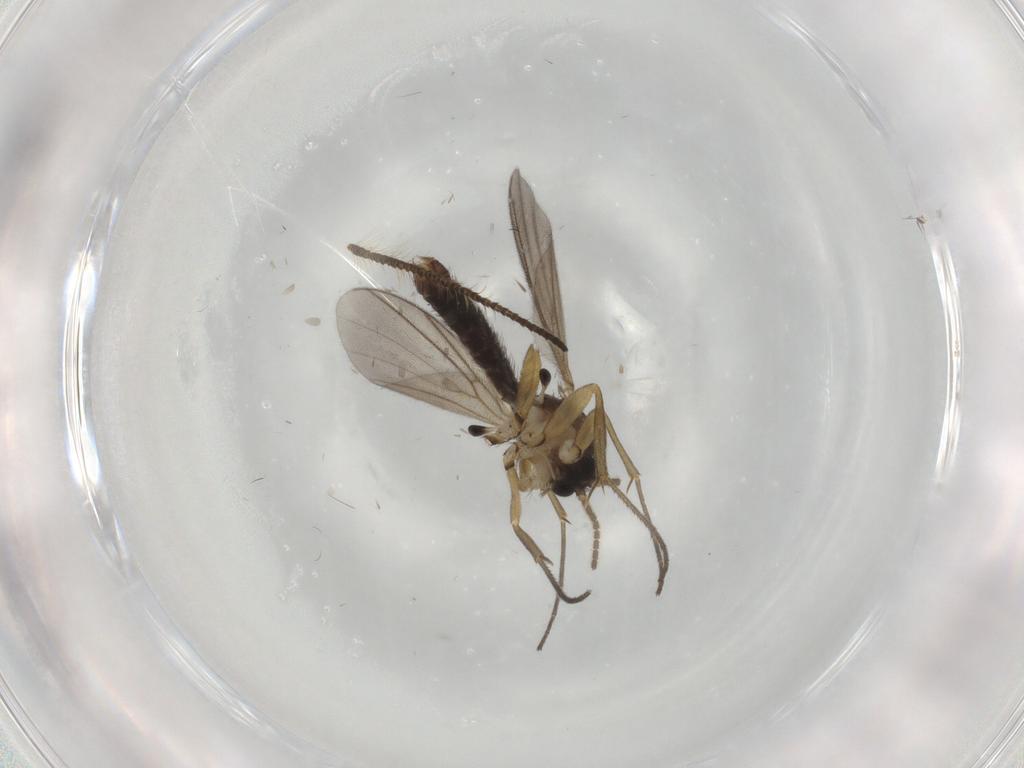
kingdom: Animalia
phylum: Arthropoda
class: Insecta
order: Diptera
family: Mycetophilidae
